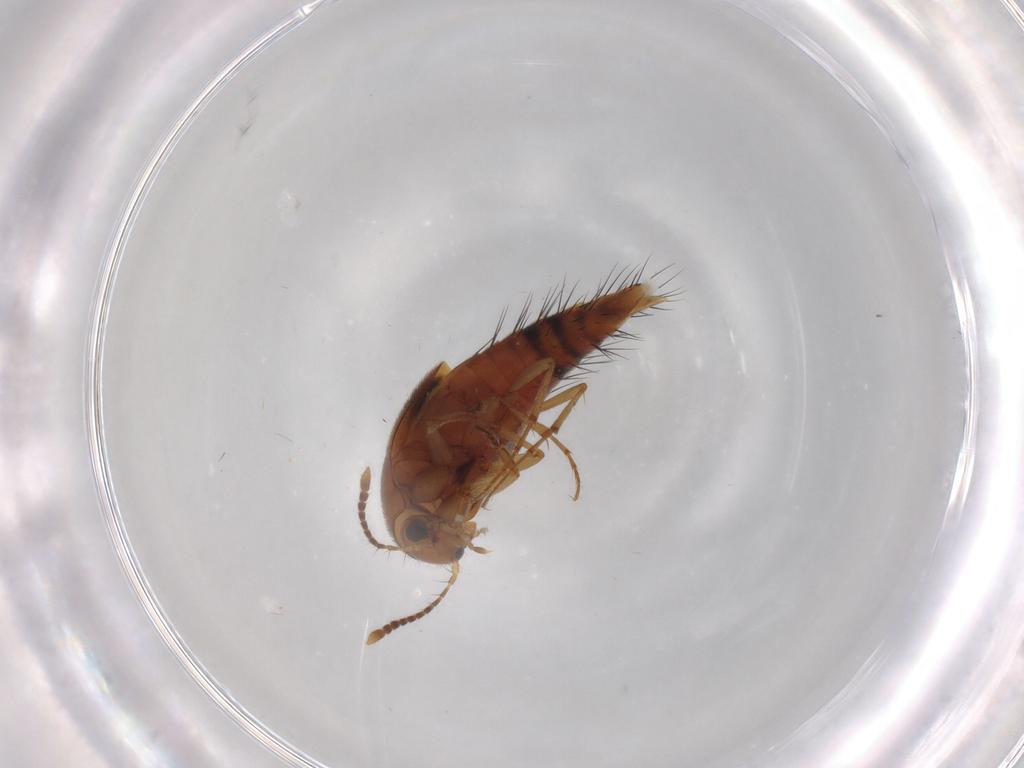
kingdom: Animalia
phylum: Arthropoda
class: Insecta
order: Coleoptera
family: Staphylinidae
